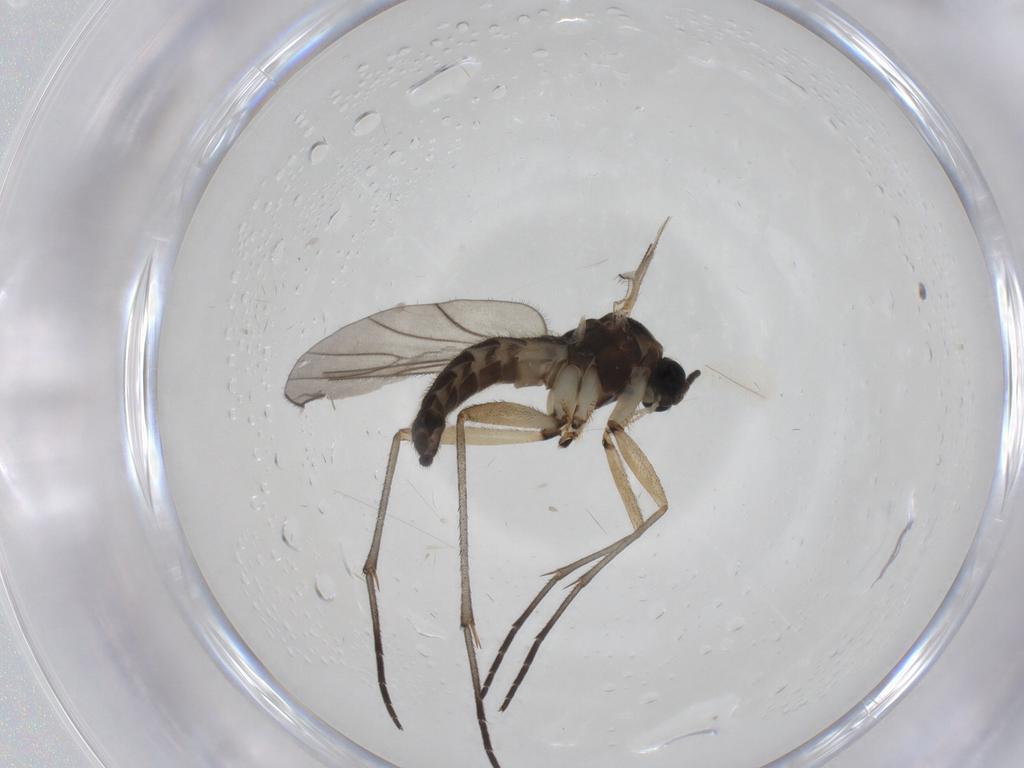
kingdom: Animalia
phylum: Arthropoda
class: Insecta
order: Diptera
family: Sciaridae
